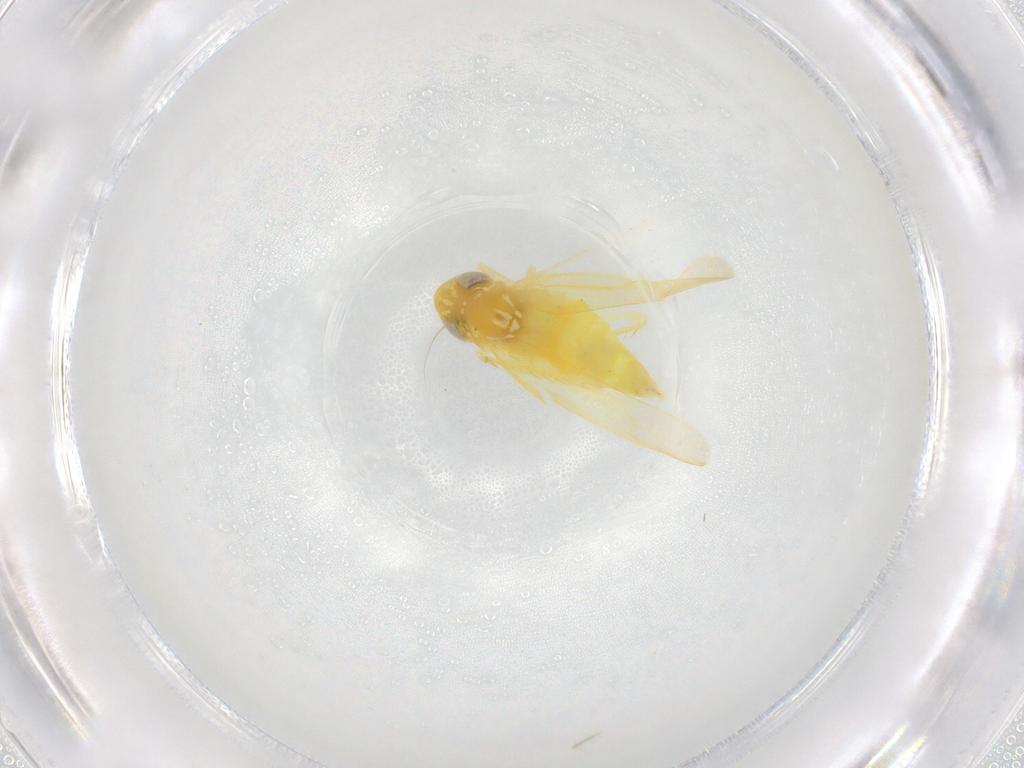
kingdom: Animalia
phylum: Arthropoda
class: Insecta
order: Hemiptera
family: Cicadellidae
